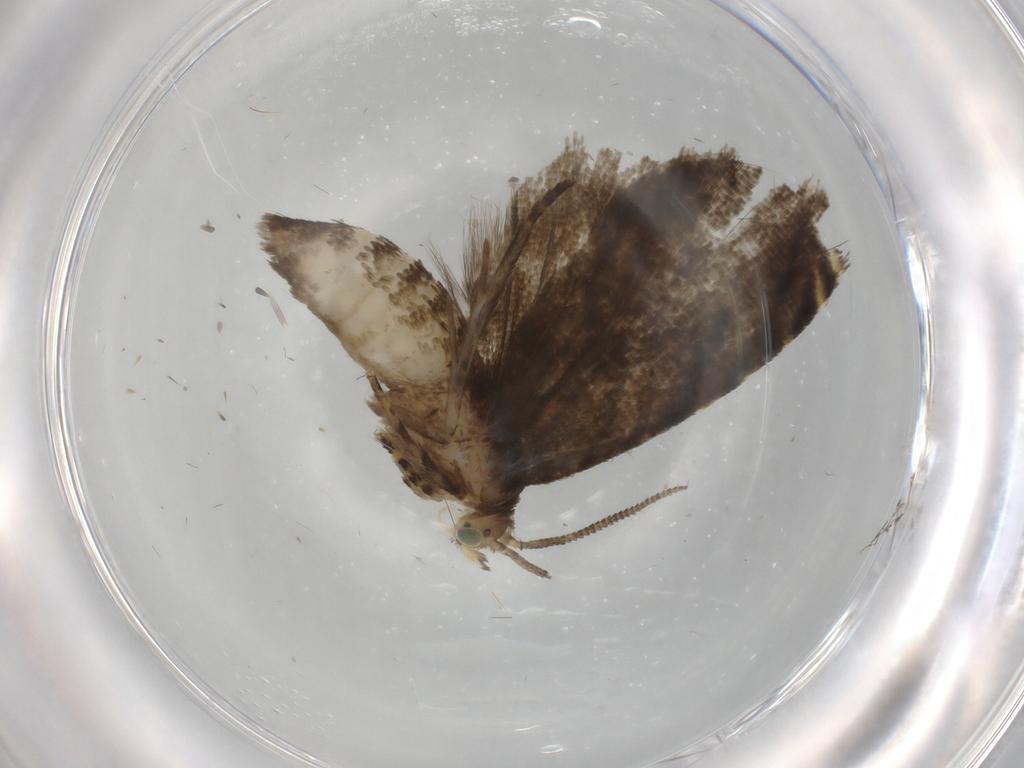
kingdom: Animalia
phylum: Arthropoda
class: Insecta
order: Lepidoptera
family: Tortricidae
